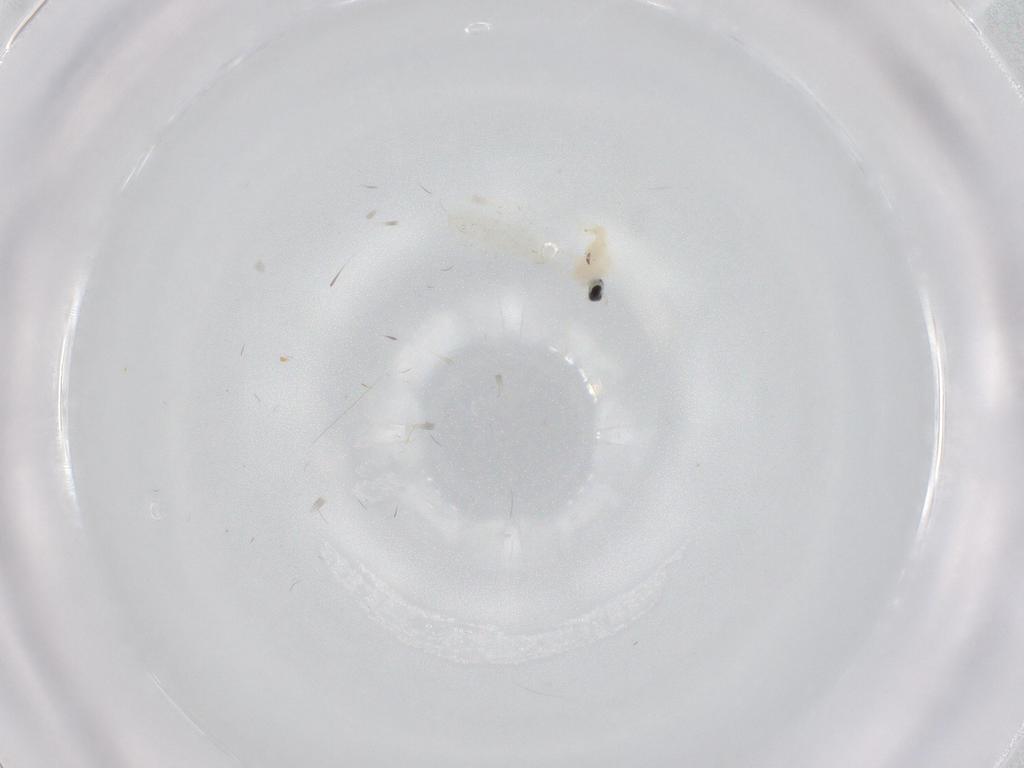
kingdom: Animalia
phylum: Arthropoda
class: Insecta
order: Diptera
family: Cecidomyiidae
